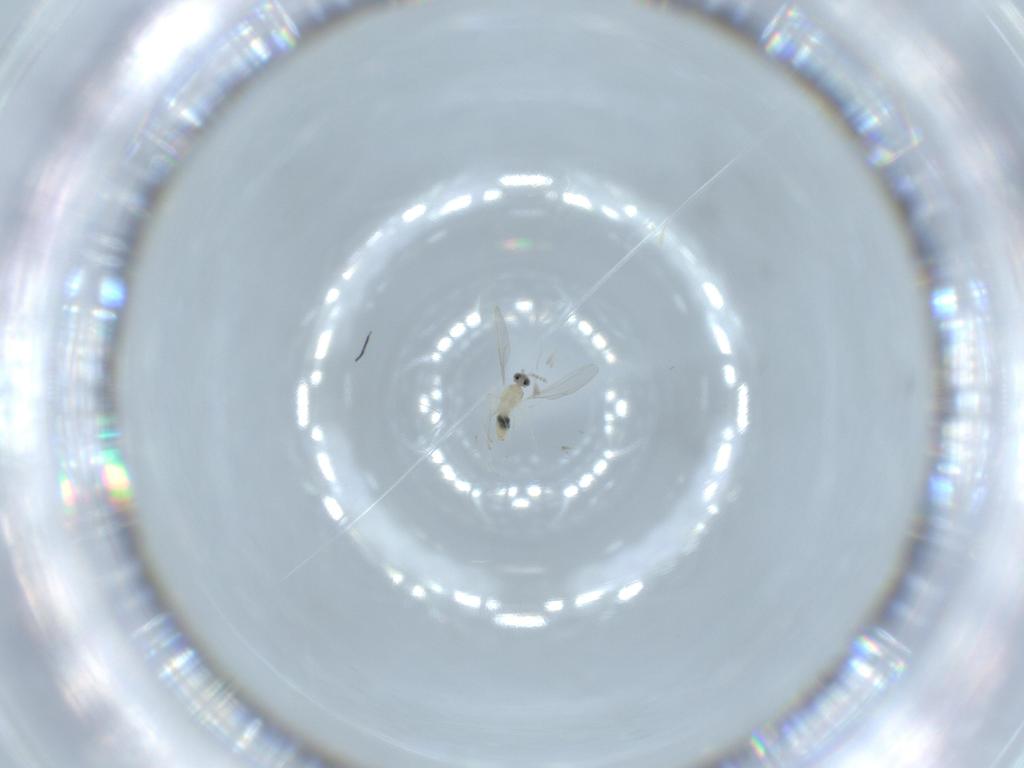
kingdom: Animalia
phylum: Arthropoda
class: Insecta
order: Diptera
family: Cecidomyiidae
